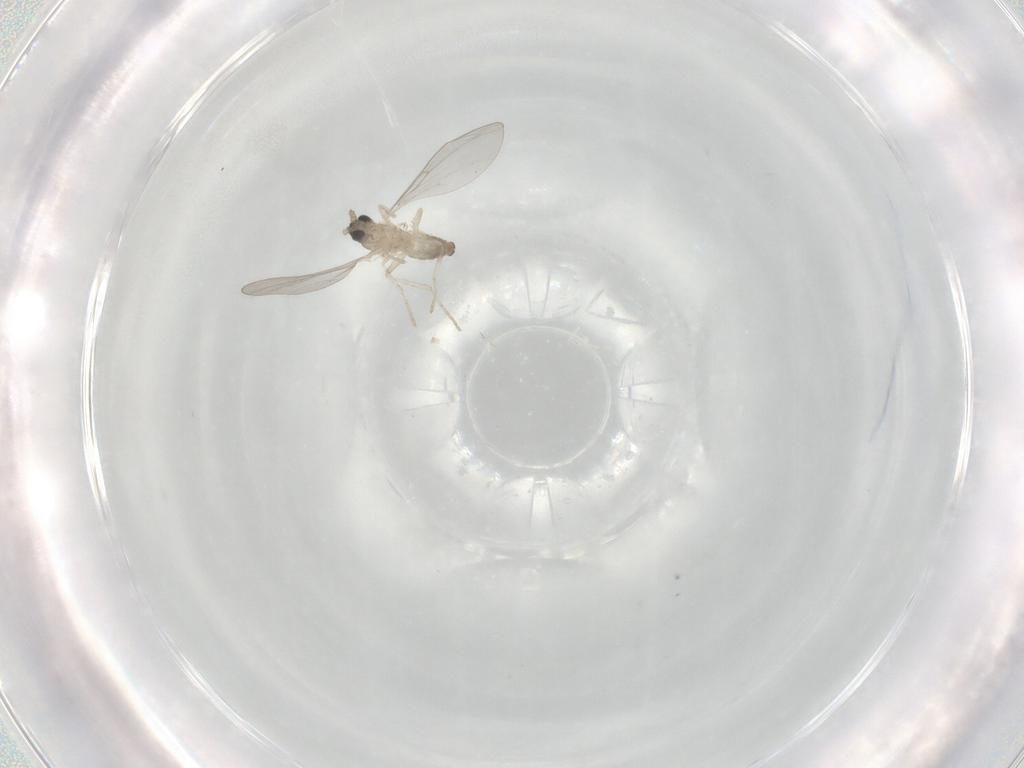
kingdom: Animalia
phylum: Arthropoda
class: Insecta
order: Diptera
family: Cecidomyiidae
